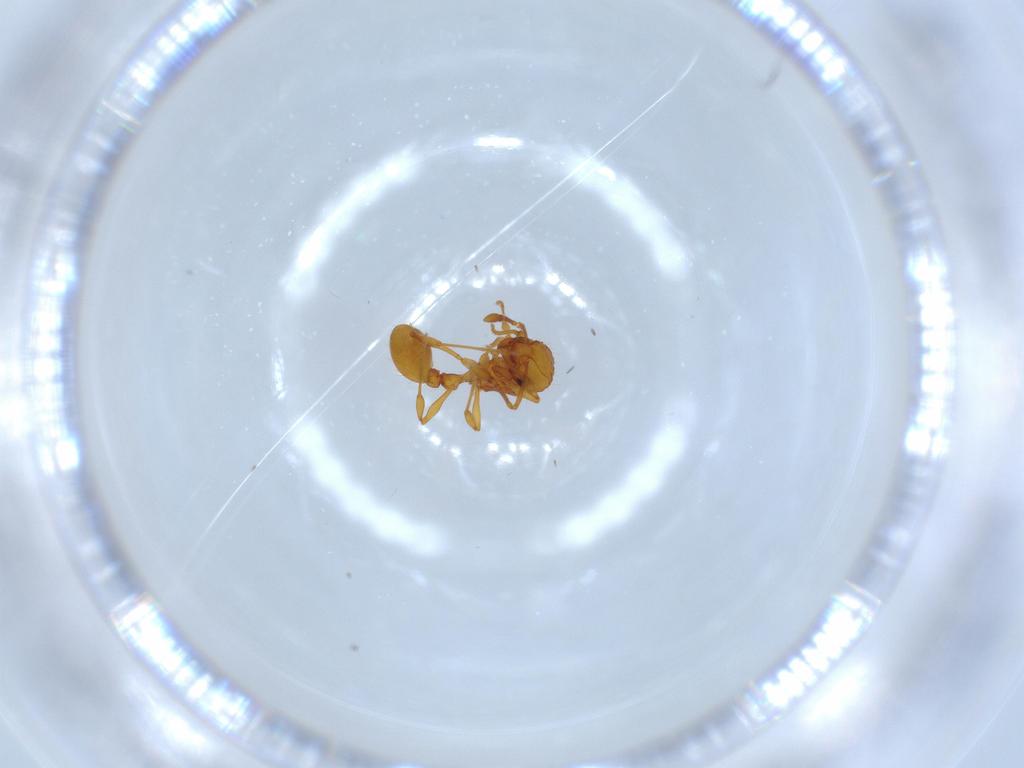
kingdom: Animalia
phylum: Arthropoda
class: Insecta
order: Hymenoptera
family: Formicidae
